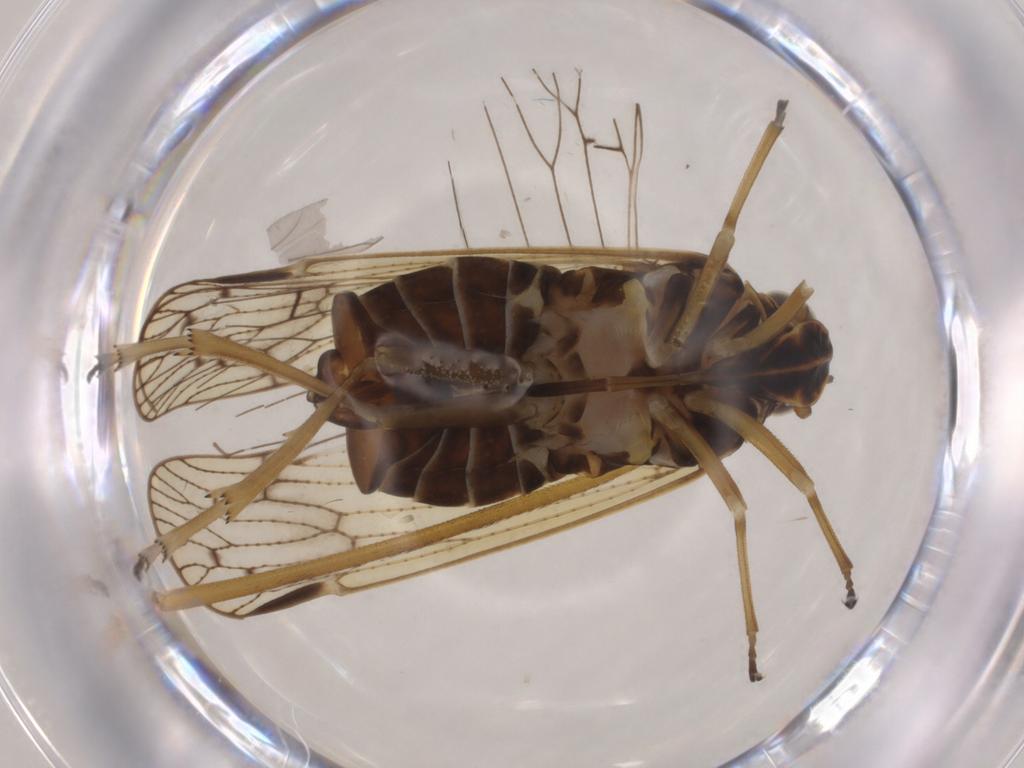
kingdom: Animalia
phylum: Arthropoda
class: Insecta
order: Hemiptera
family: Cixiidae
